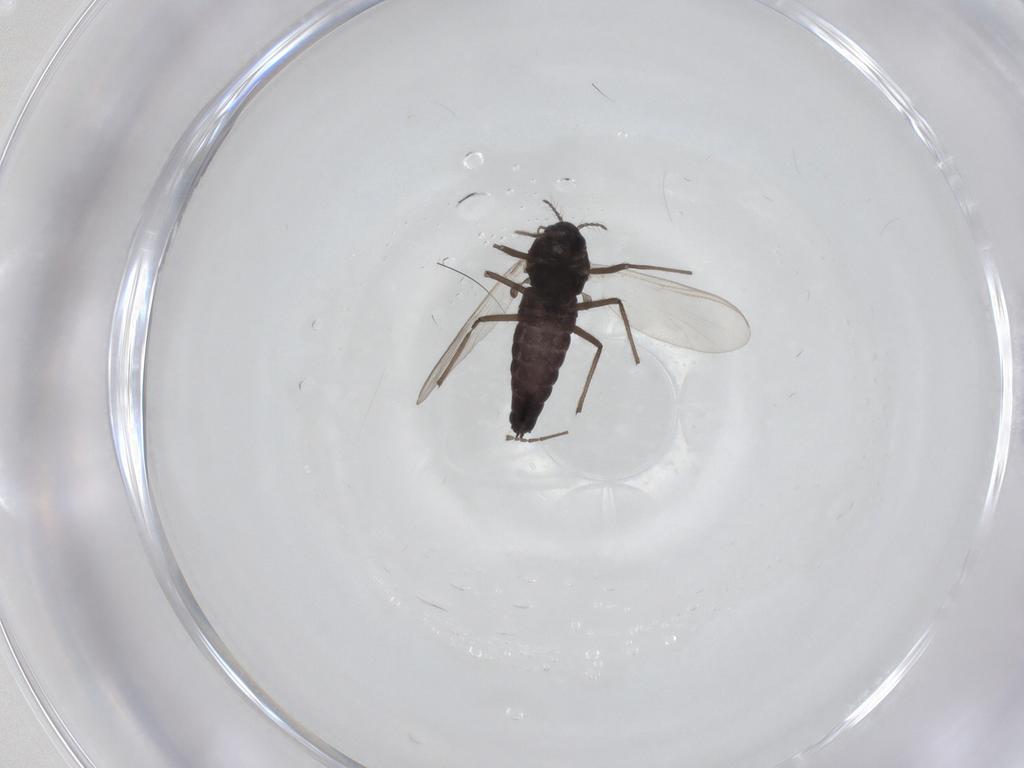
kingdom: Animalia
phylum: Arthropoda
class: Insecta
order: Diptera
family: Chironomidae
